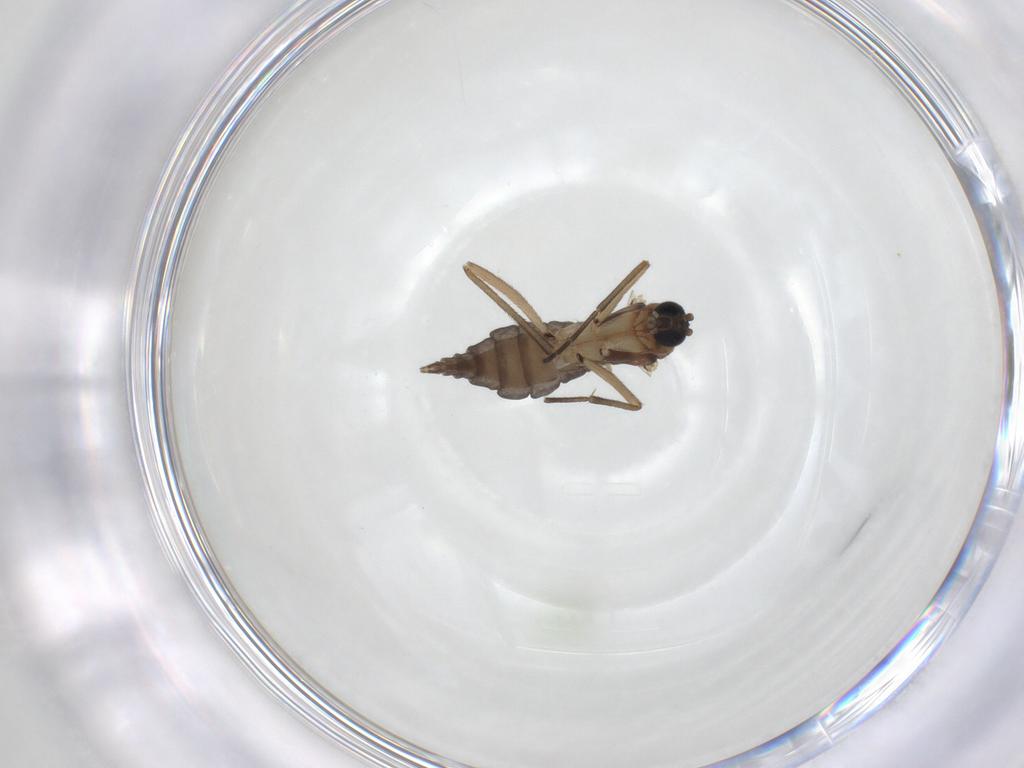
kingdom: Animalia
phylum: Arthropoda
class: Insecta
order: Diptera
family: Sciaridae
